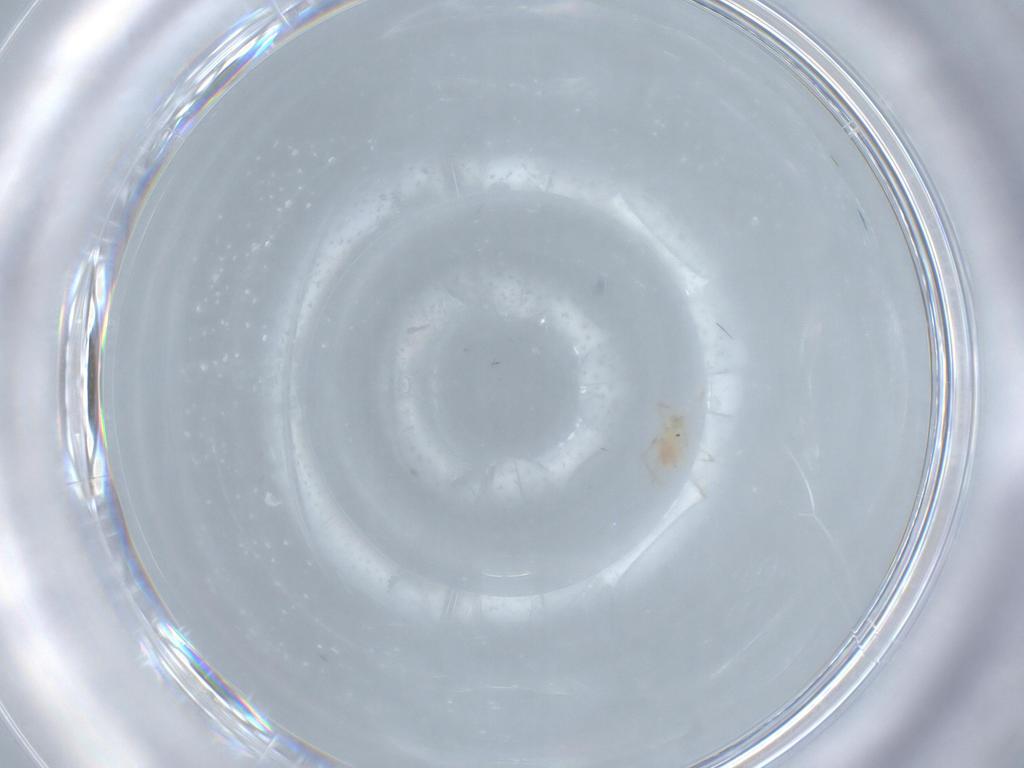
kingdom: Animalia
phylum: Arthropoda
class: Arachnida
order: Trombidiformes
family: Erythraeidae
